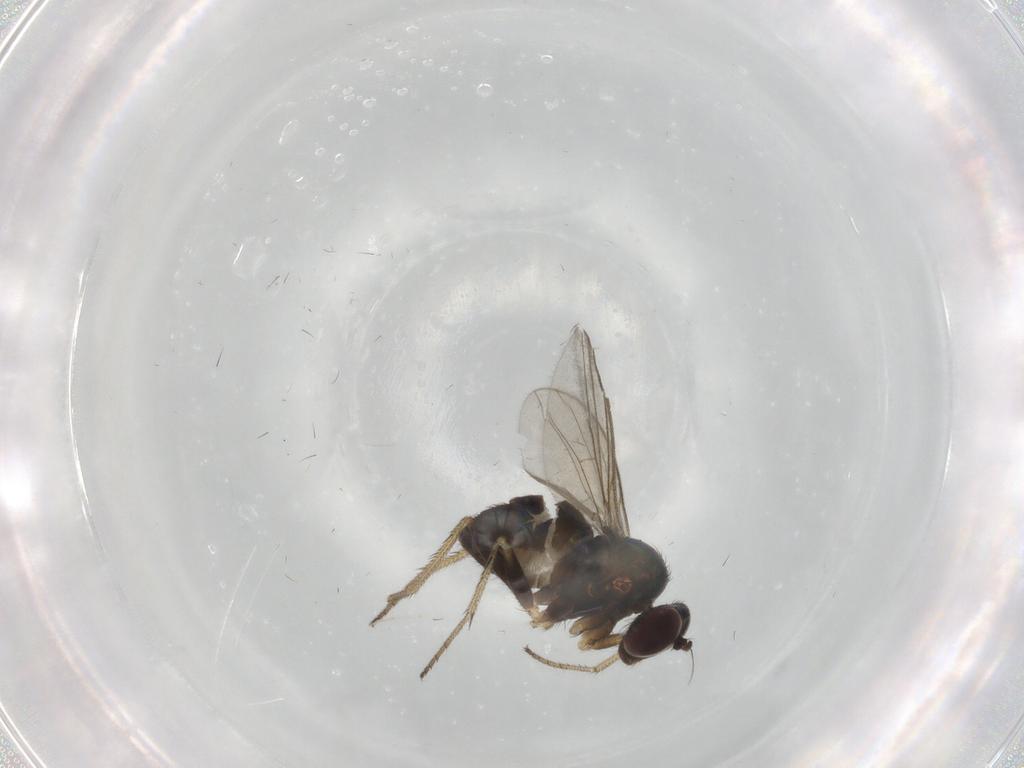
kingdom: Animalia
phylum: Arthropoda
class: Insecta
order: Diptera
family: Dolichopodidae
